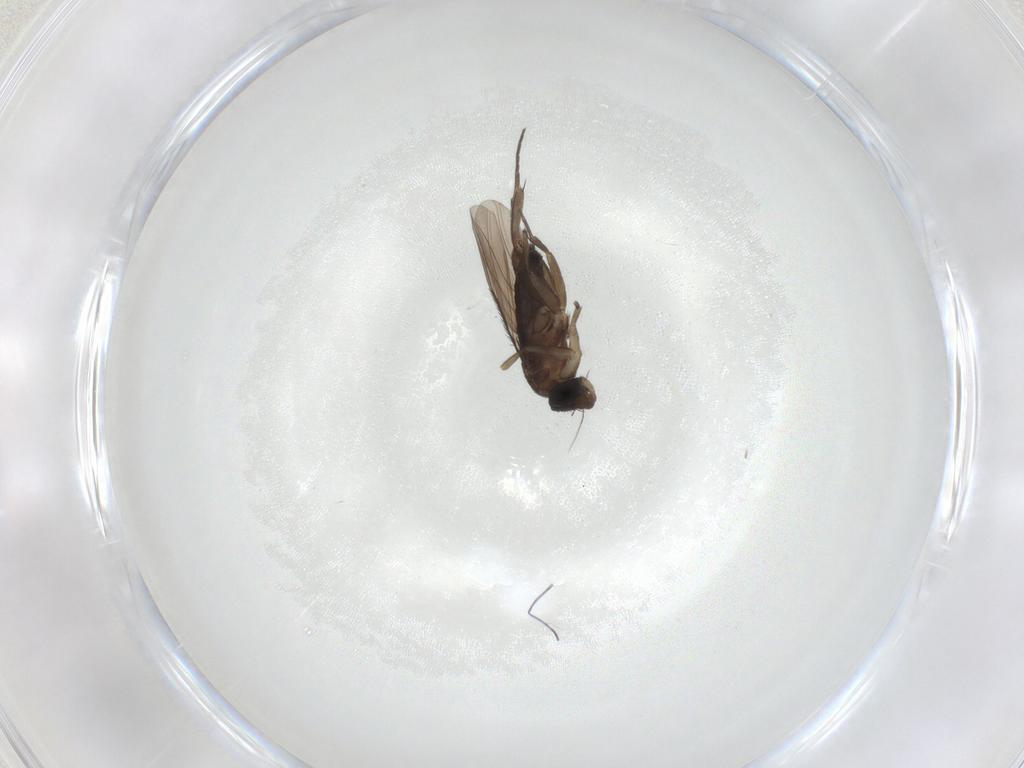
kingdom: Animalia
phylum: Arthropoda
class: Insecta
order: Diptera
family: Phoridae
